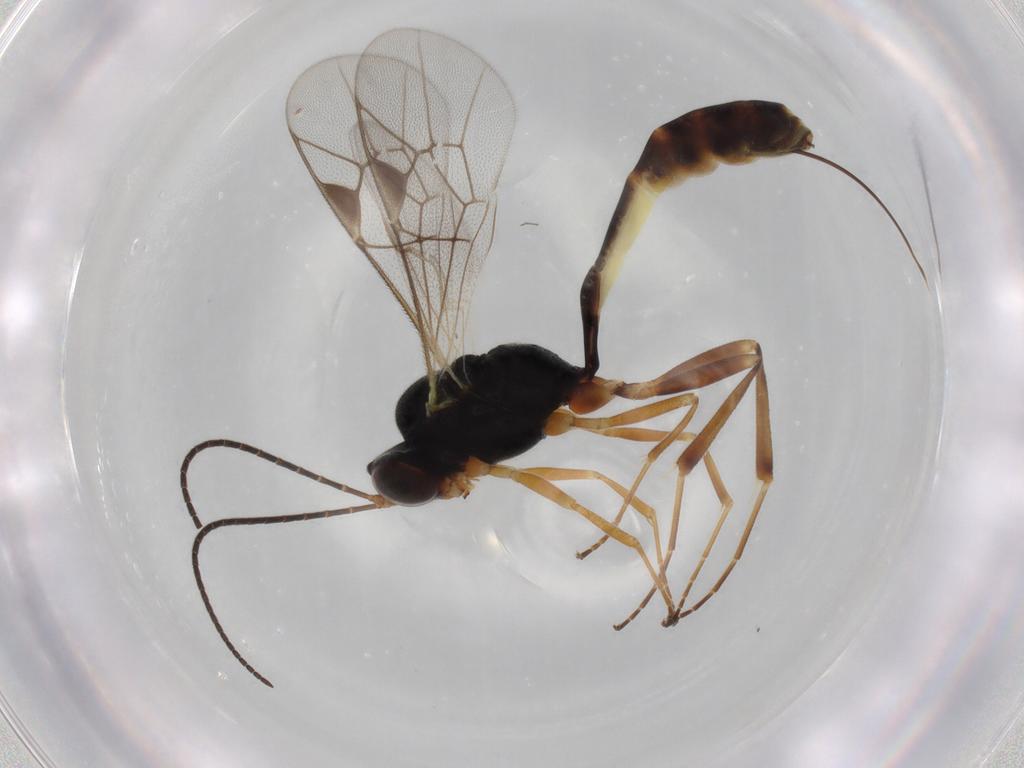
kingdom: Animalia
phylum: Arthropoda
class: Insecta
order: Hymenoptera
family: Ichneumonidae
